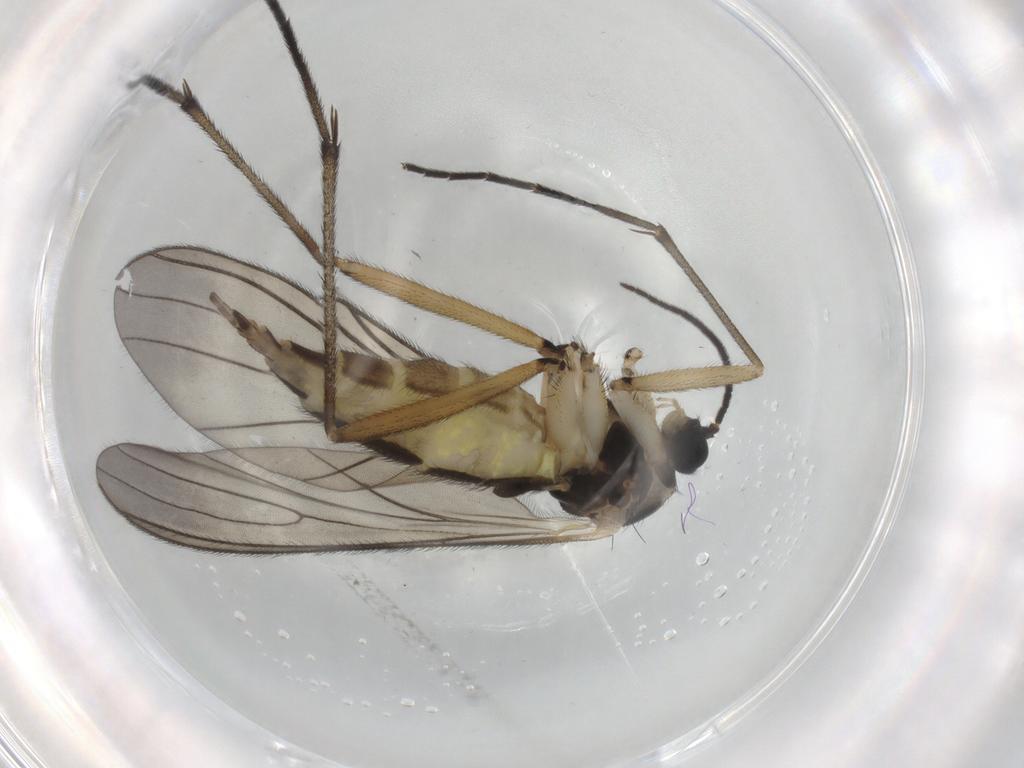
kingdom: Animalia
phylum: Arthropoda
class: Insecta
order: Diptera
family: Sciaridae
